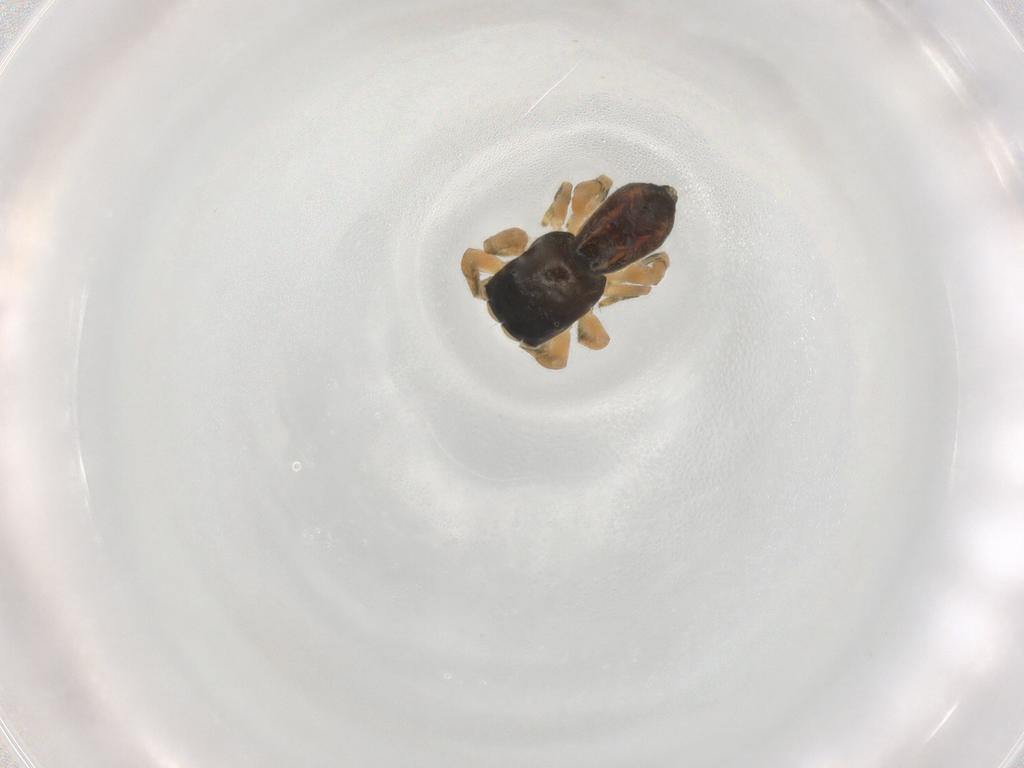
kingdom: Animalia
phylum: Arthropoda
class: Arachnida
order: Araneae
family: Salticidae
